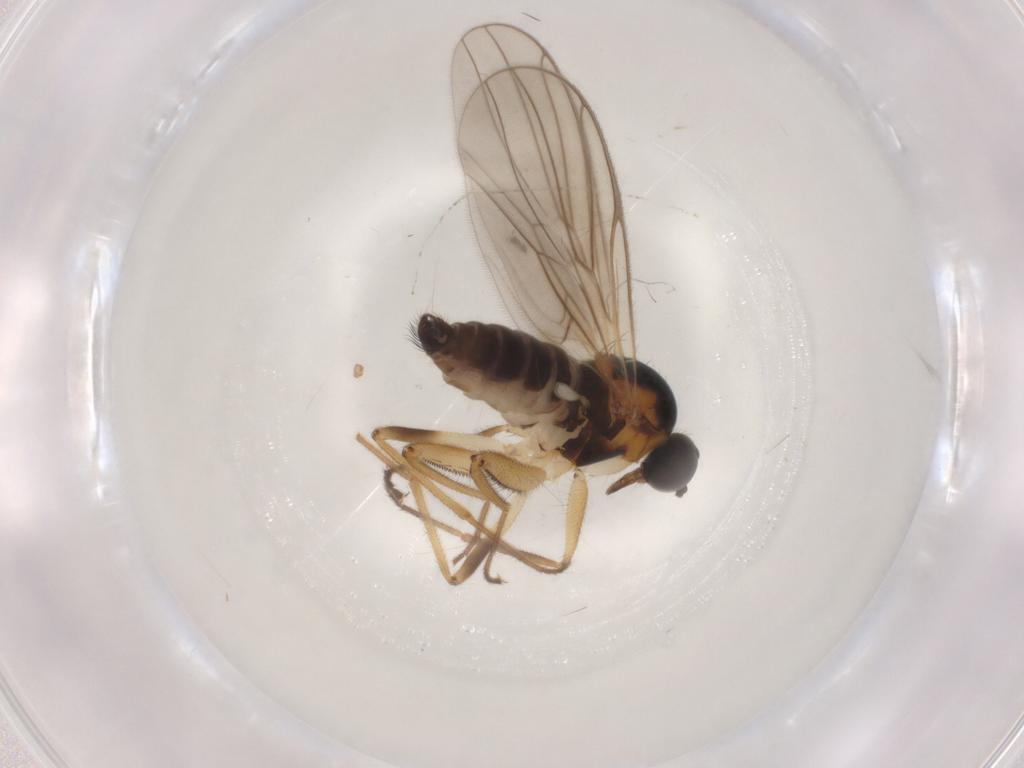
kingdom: Animalia
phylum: Arthropoda
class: Insecta
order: Diptera
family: Hybotidae
